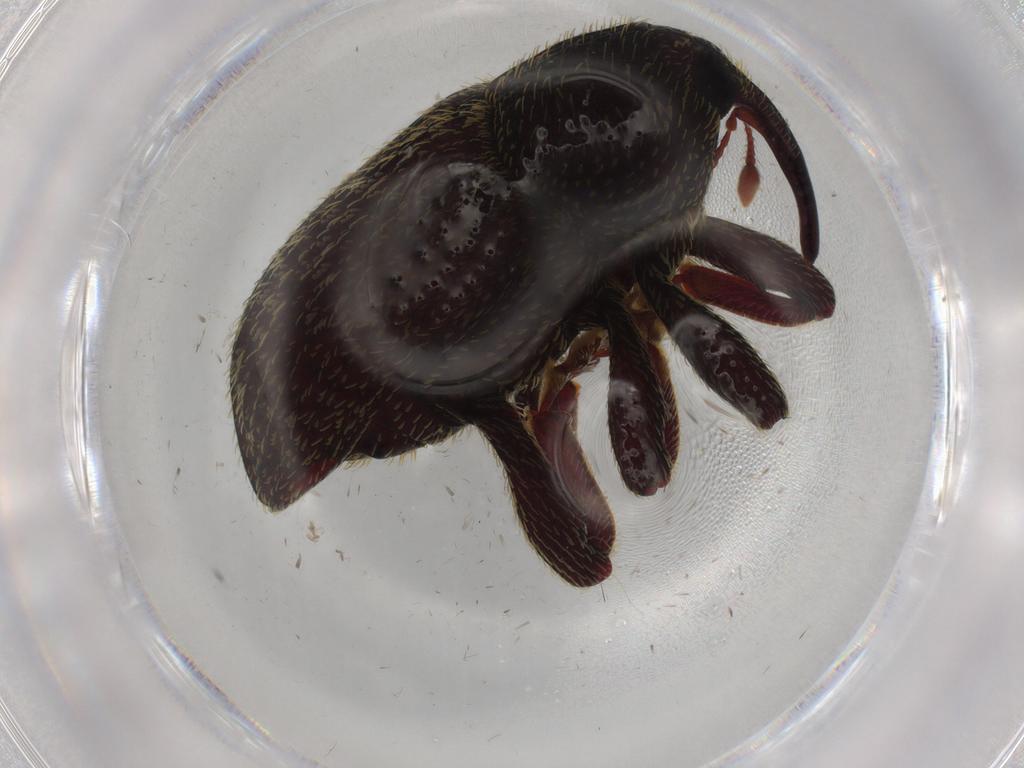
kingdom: Animalia
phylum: Arthropoda
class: Insecta
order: Coleoptera
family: Curculionidae
